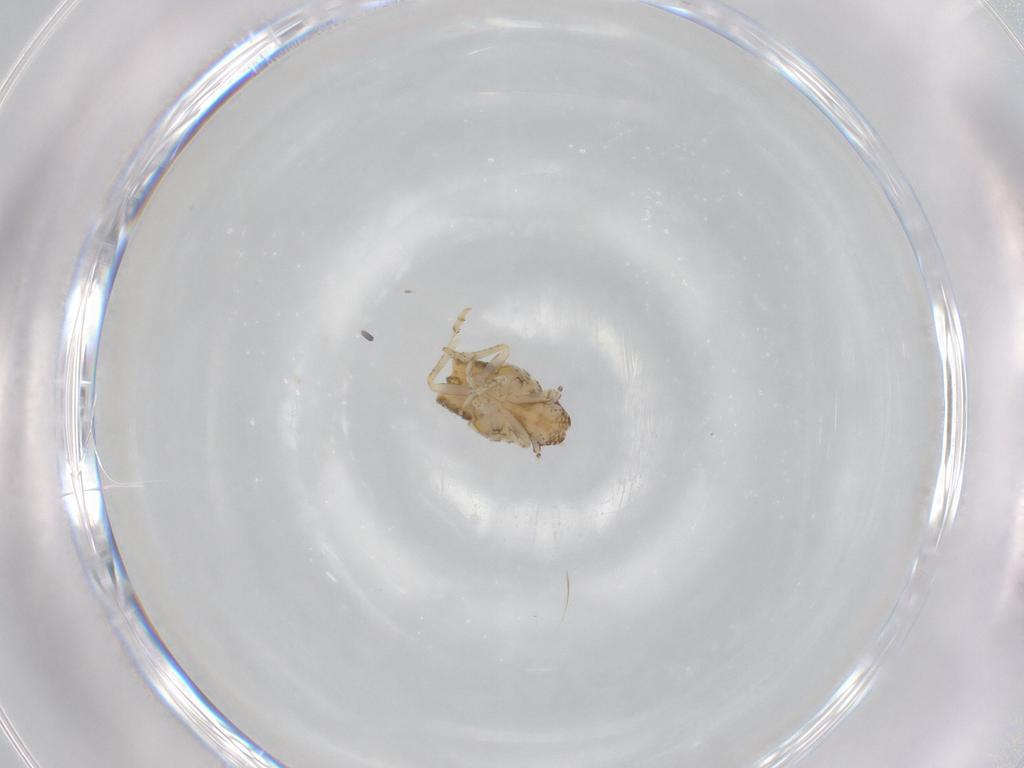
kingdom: Animalia
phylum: Arthropoda
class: Insecta
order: Hemiptera
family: Flatidae
